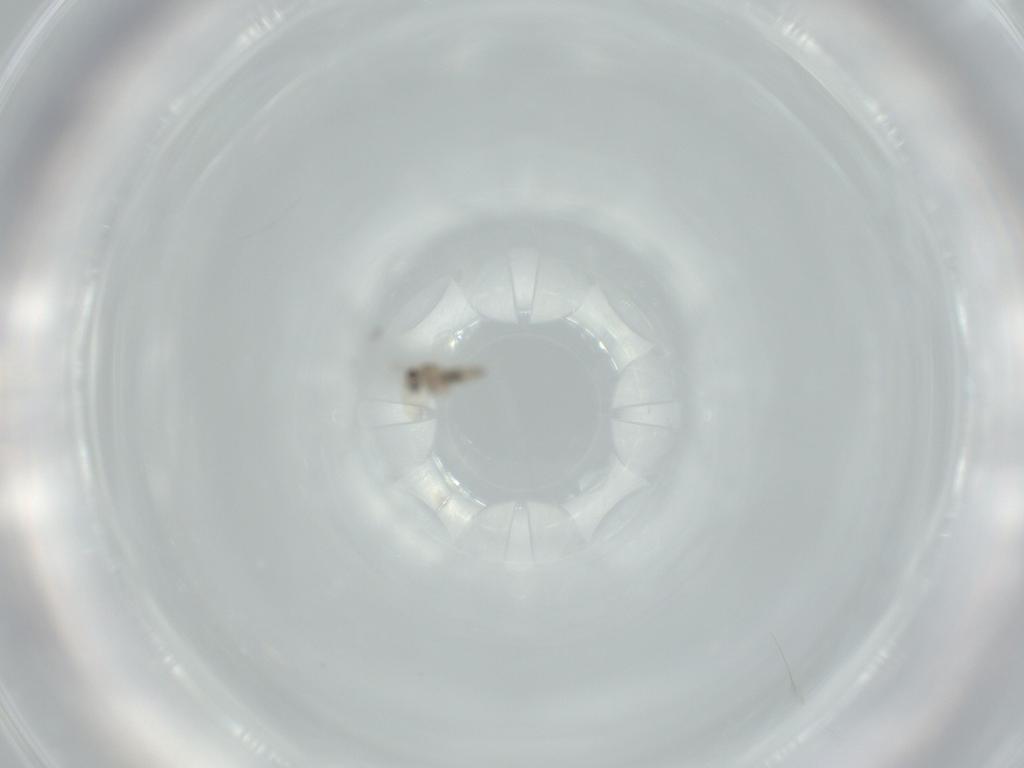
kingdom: Animalia
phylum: Arthropoda
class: Insecta
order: Diptera
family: Cecidomyiidae
